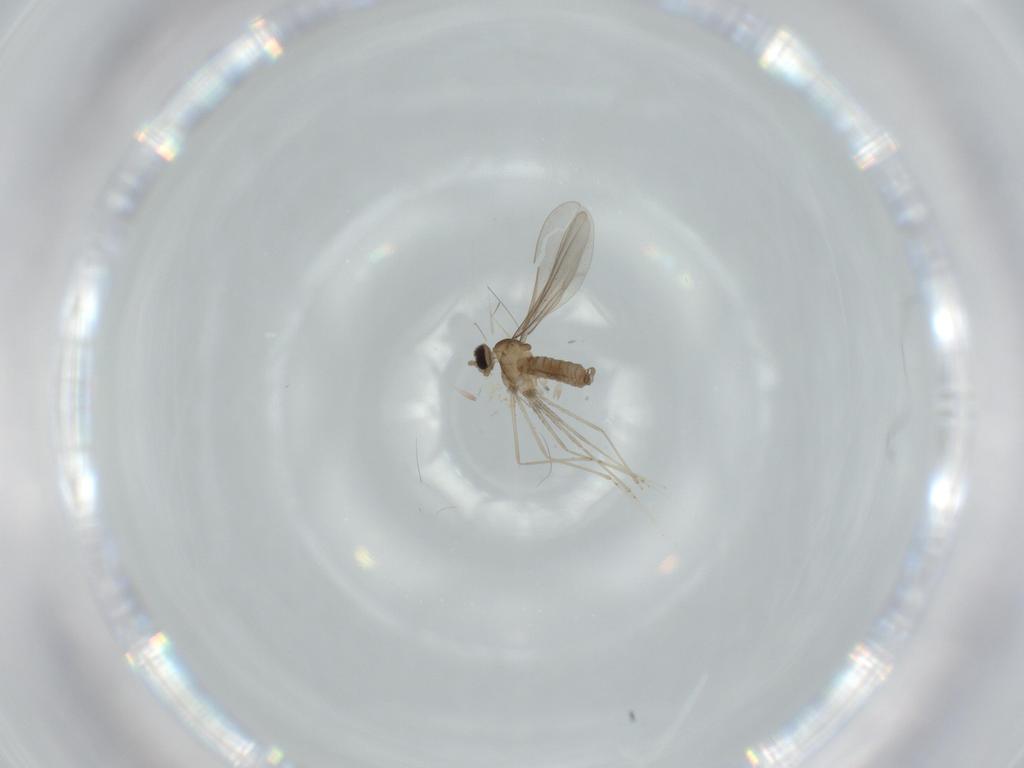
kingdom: Animalia
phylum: Arthropoda
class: Insecta
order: Diptera
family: Cecidomyiidae
